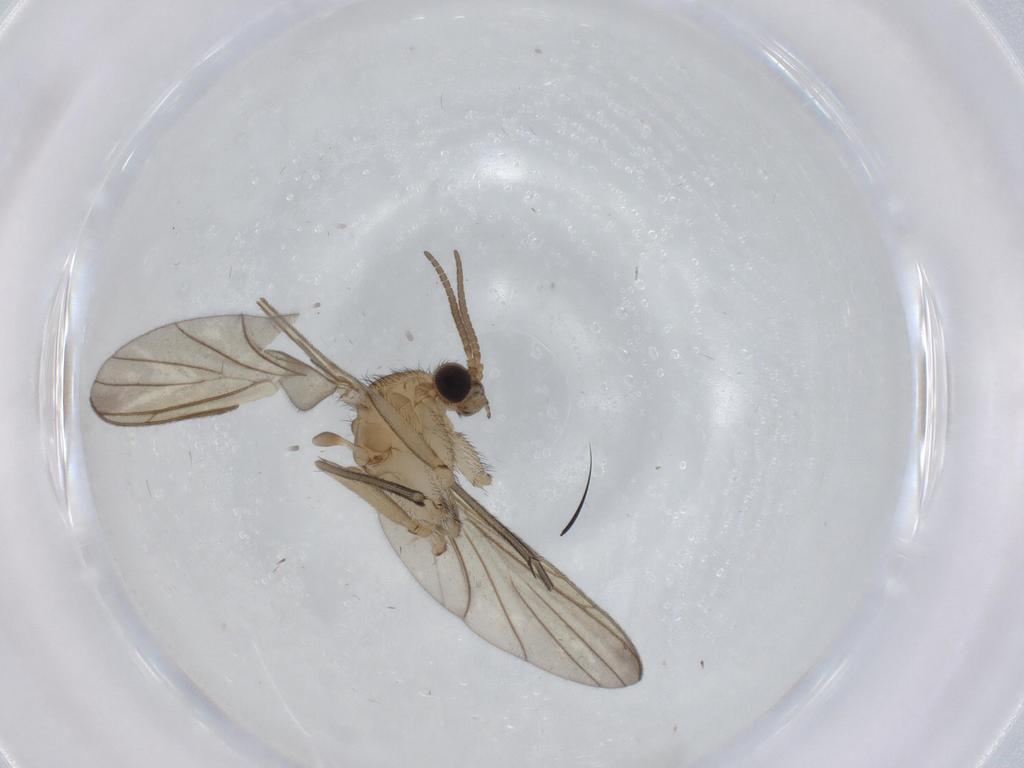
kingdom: Animalia
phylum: Arthropoda
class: Insecta
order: Diptera
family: Keroplatidae
